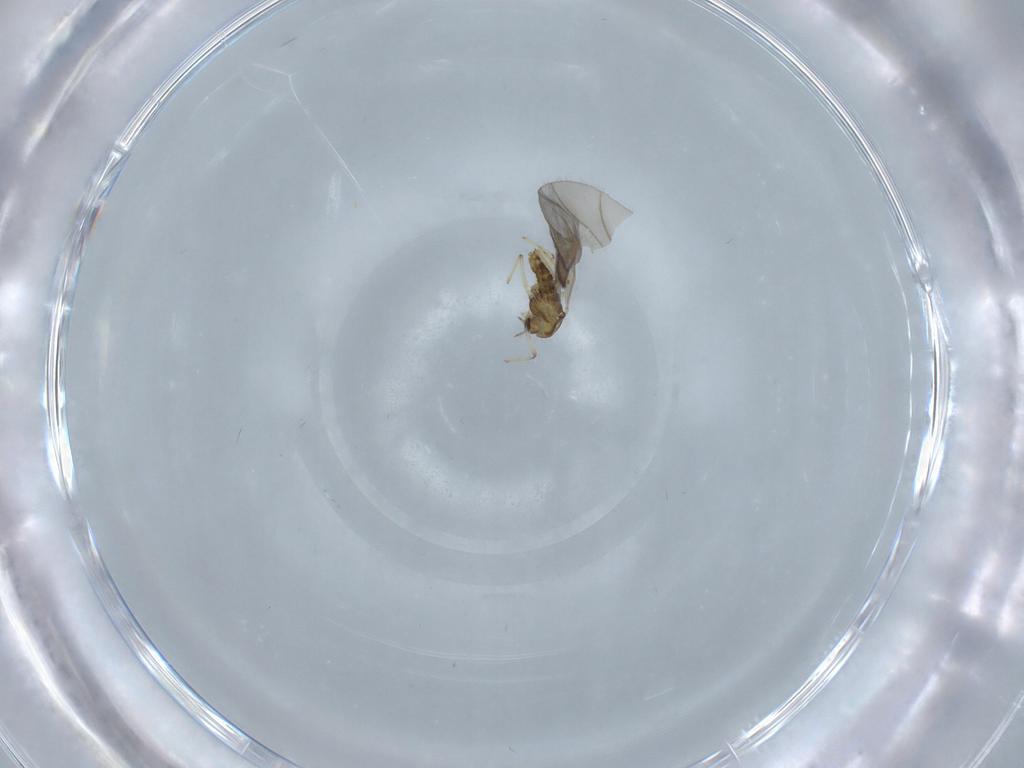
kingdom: Animalia
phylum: Arthropoda
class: Insecta
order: Diptera
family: Chironomidae
